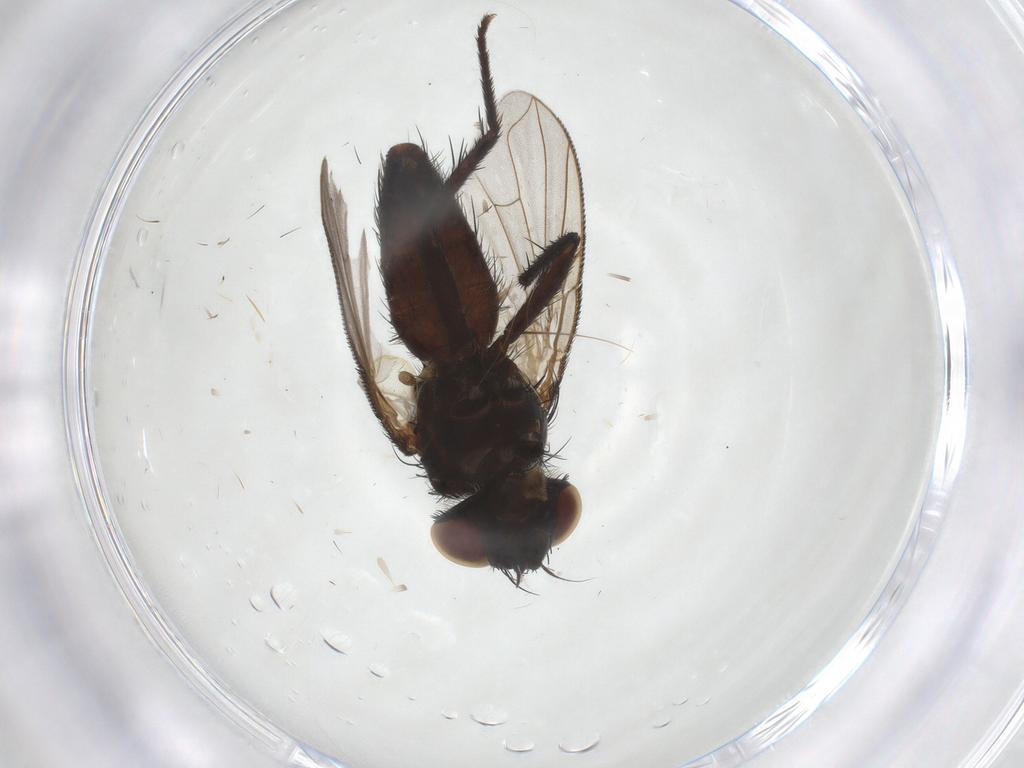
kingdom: Animalia
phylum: Arthropoda
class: Insecta
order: Diptera
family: Tachinidae
